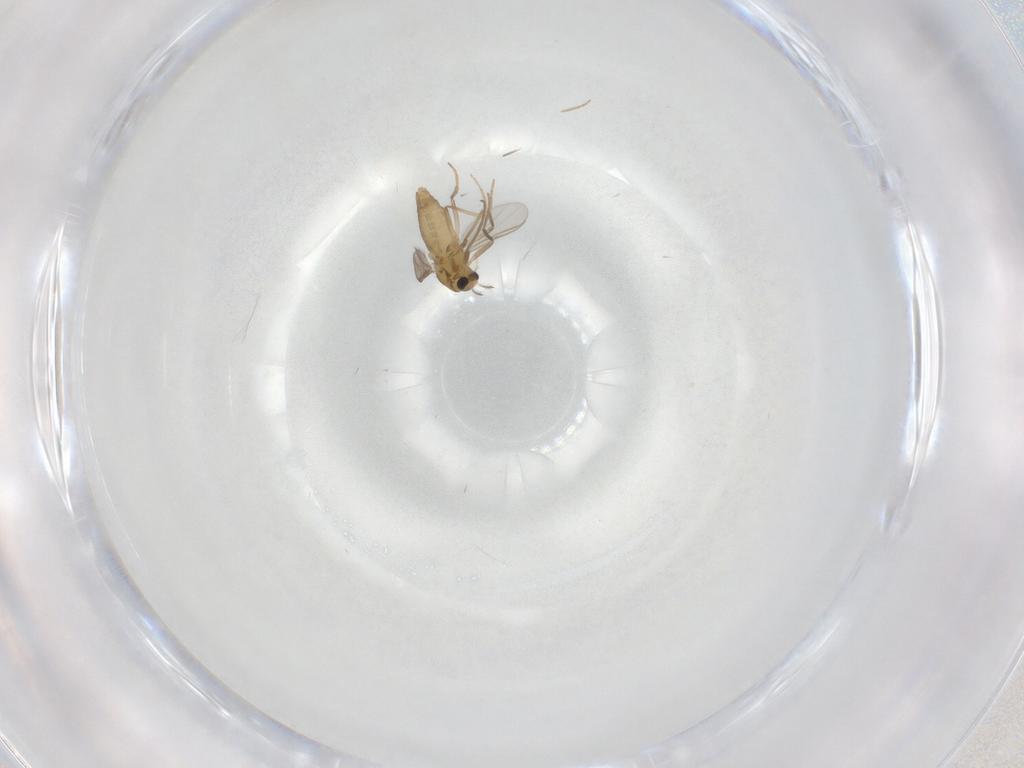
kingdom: Animalia
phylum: Arthropoda
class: Insecta
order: Diptera
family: Chironomidae
